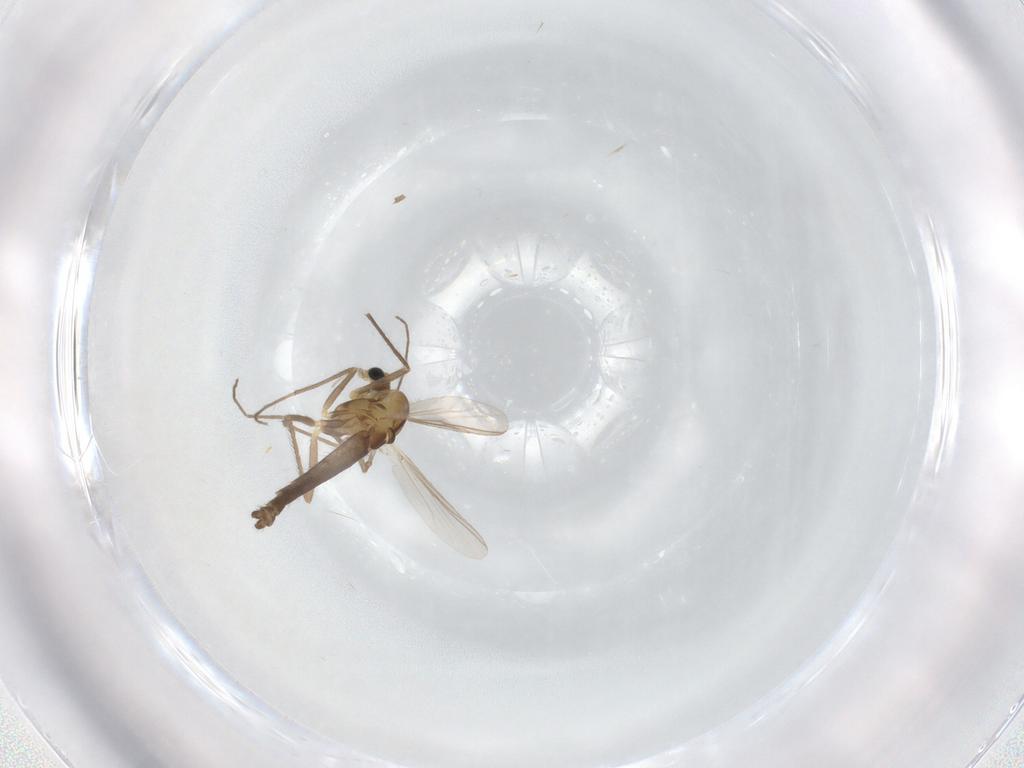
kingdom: Animalia
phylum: Arthropoda
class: Insecta
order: Diptera
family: Chironomidae
